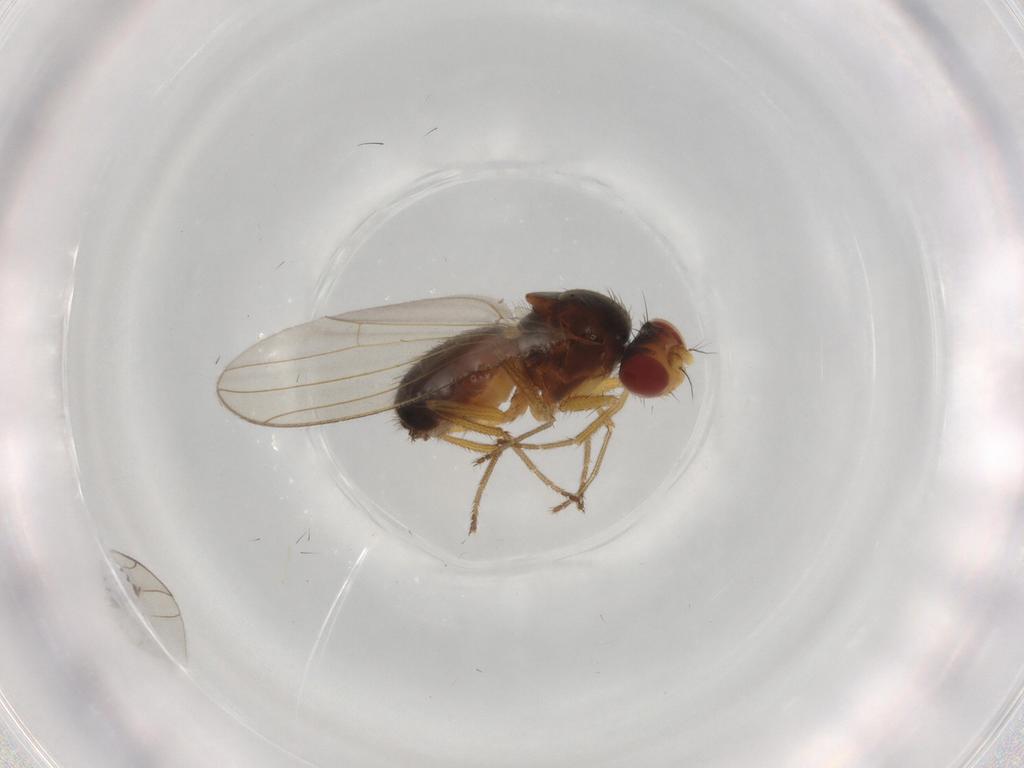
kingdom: Animalia
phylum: Arthropoda
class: Insecta
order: Diptera
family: Drosophilidae
